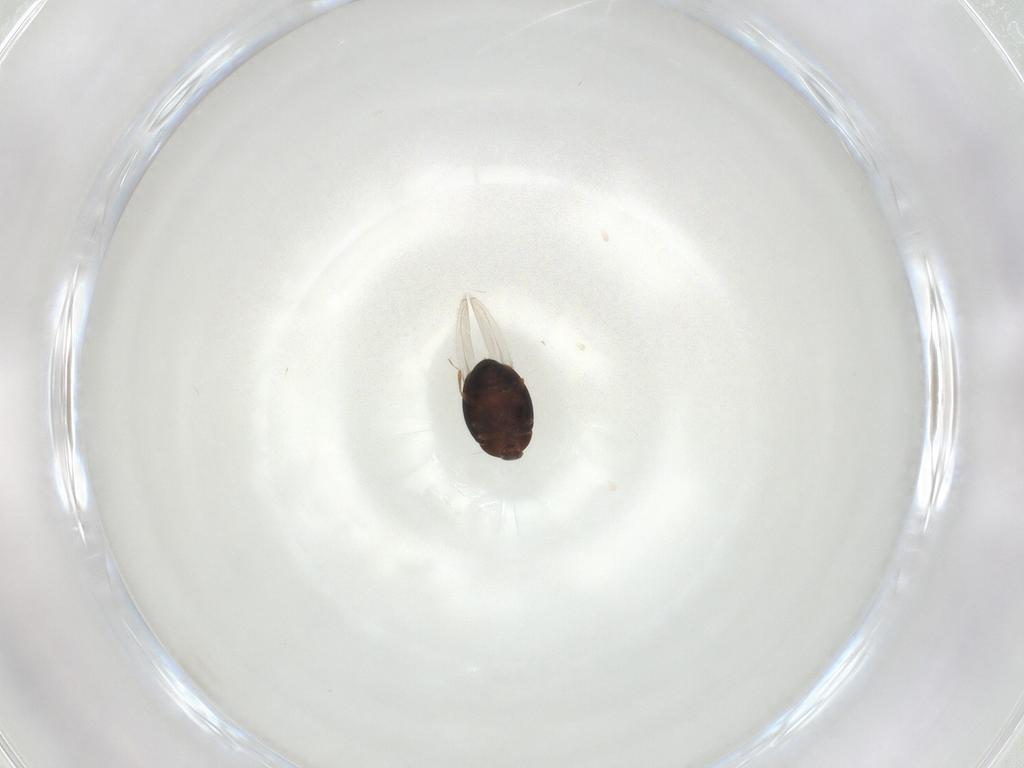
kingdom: Animalia
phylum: Arthropoda
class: Insecta
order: Coleoptera
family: Corylophidae
